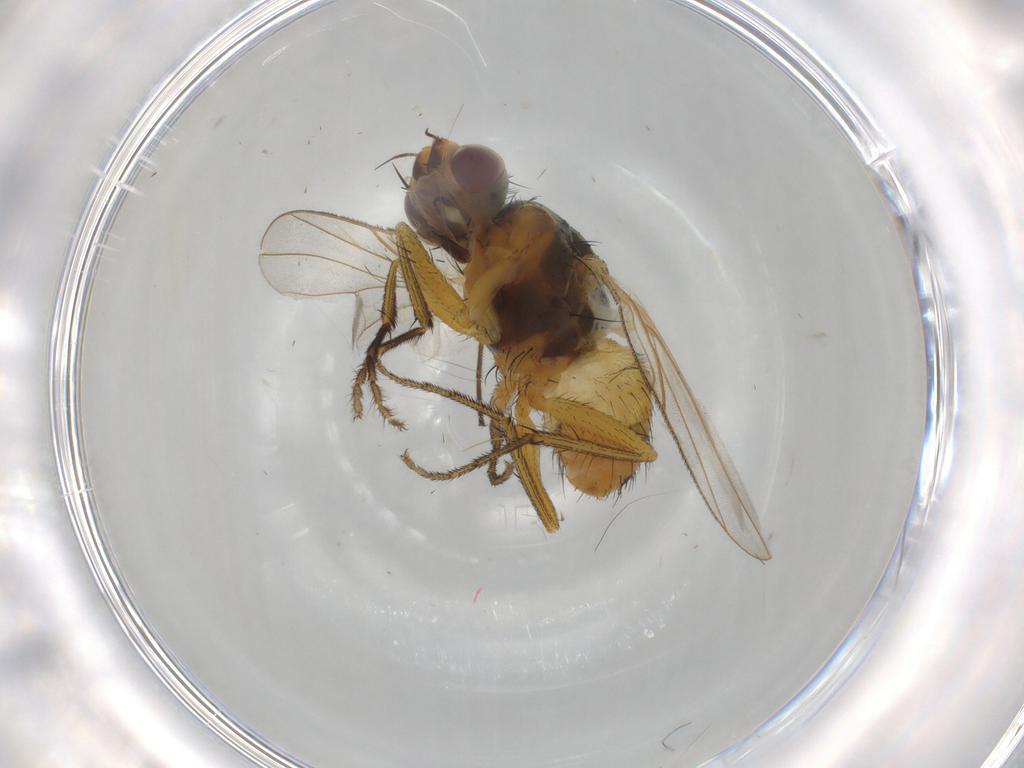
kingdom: Animalia
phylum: Arthropoda
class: Insecta
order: Diptera
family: Muscidae
